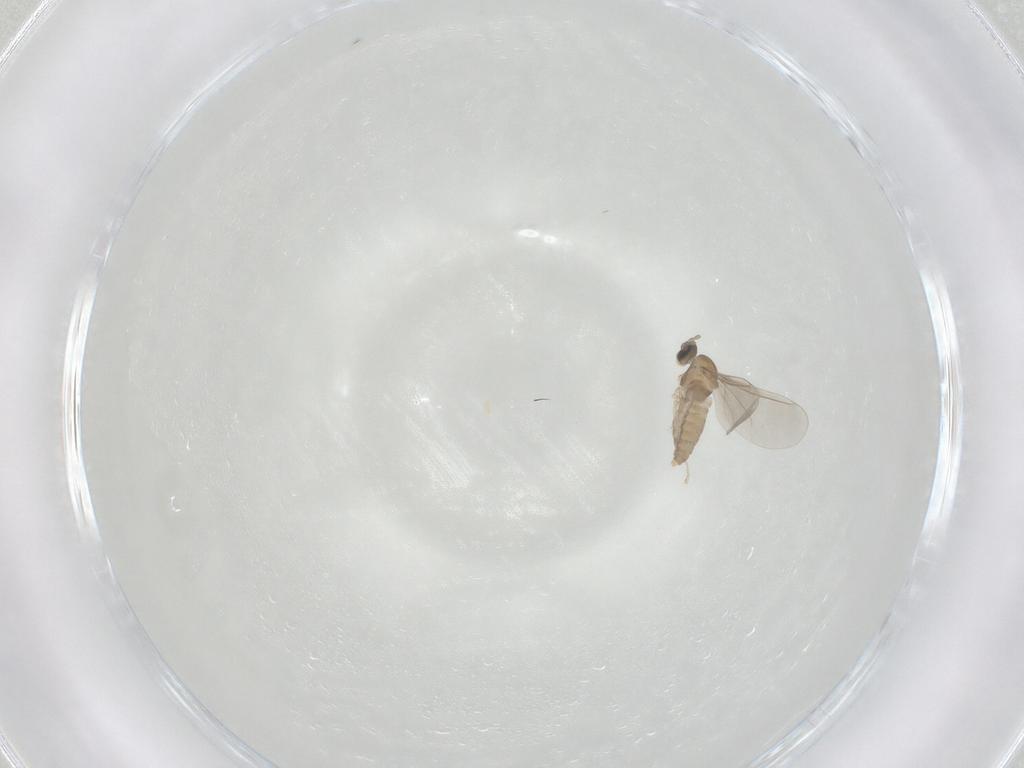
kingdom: Animalia
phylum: Arthropoda
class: Insecta
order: Diptera
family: Cecidomyiidae
